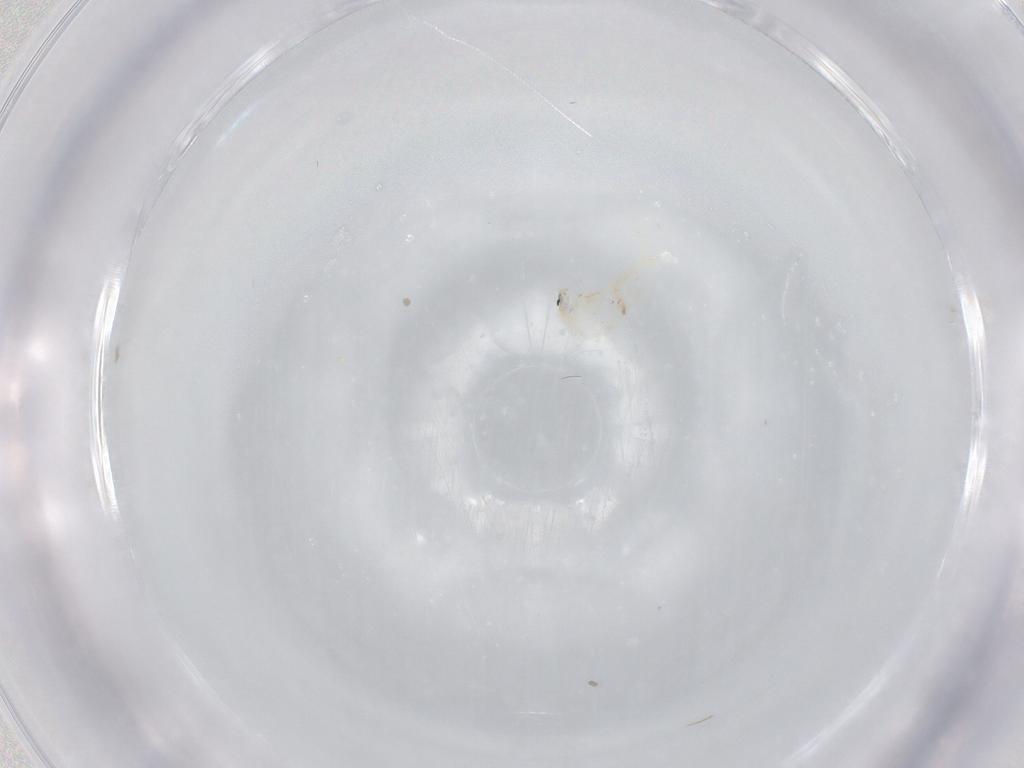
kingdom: Animalia
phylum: Arthropoda
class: Collembola
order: Entomobryomorpha
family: Entomobryidae
